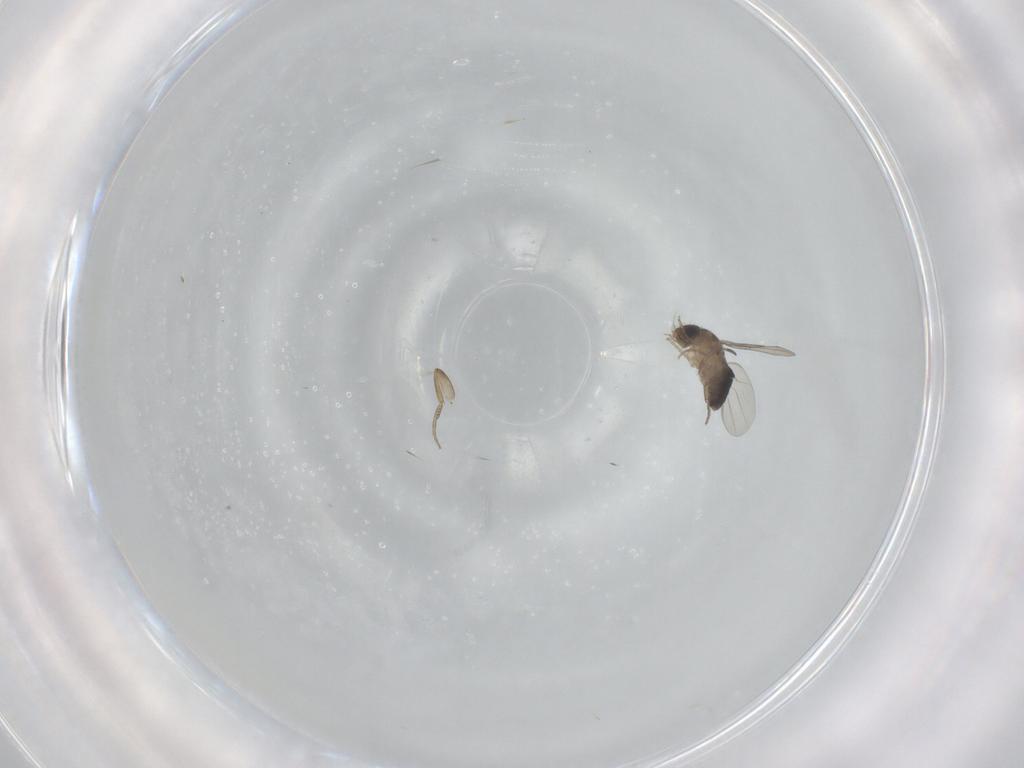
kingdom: Animalia
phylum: Arthropoda
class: Insecta
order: Diptera
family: Phoridae
